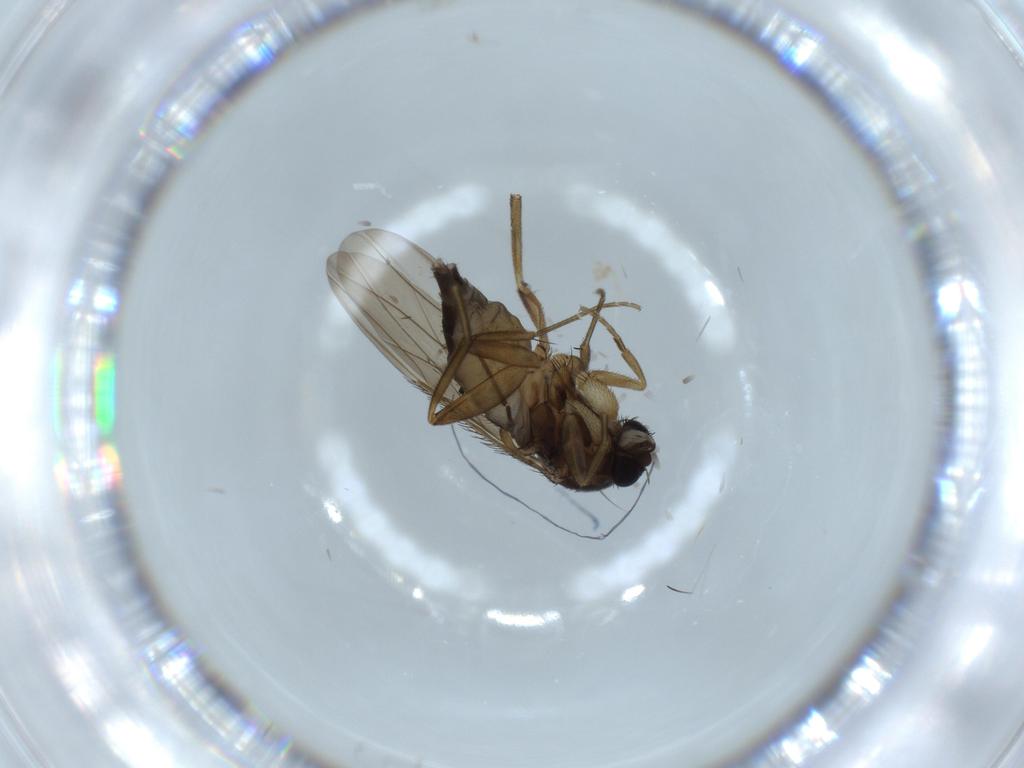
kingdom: Animalia
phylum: Arthropoda
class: Insecta
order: Diptera
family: Phoridae
